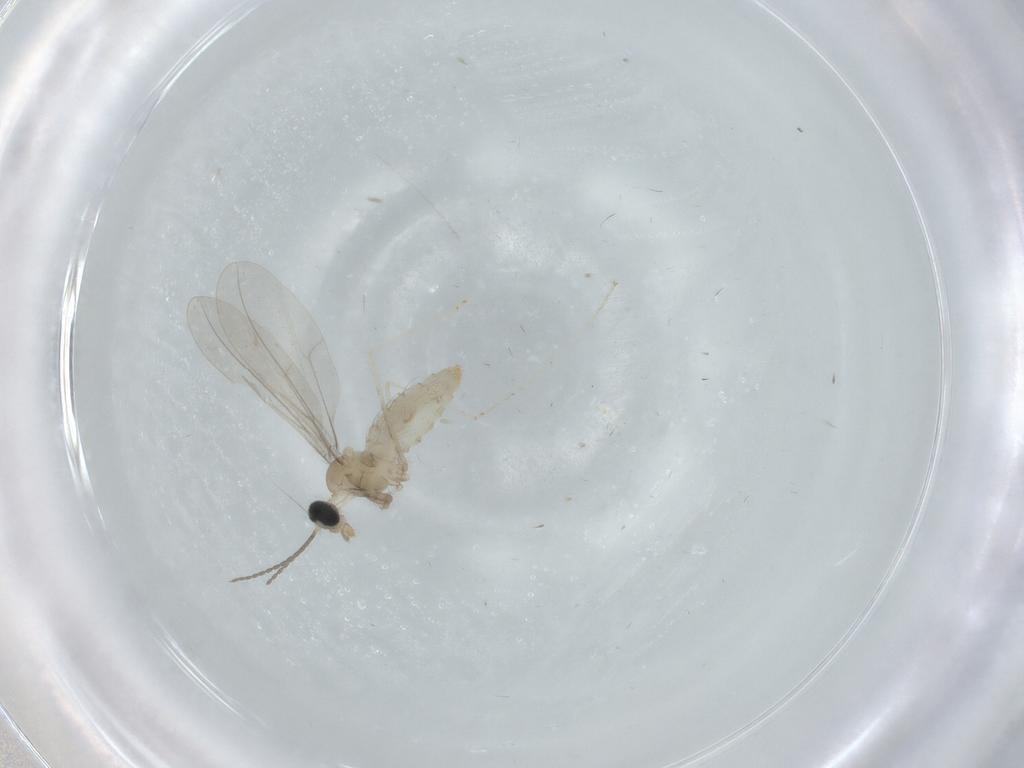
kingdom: Animalia
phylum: Arthropoda
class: Insecta
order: Diptera
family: Cecidomyiidae
